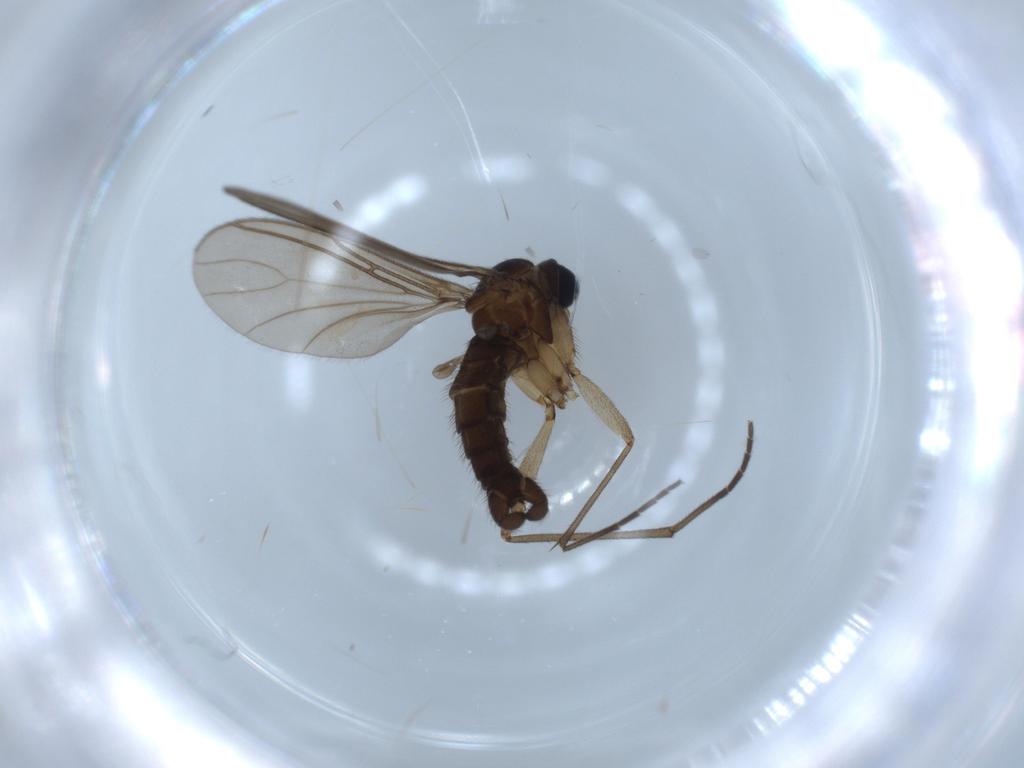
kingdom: Animalia
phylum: Arthropoda
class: Insecta
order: Diptera
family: Sciaridae
